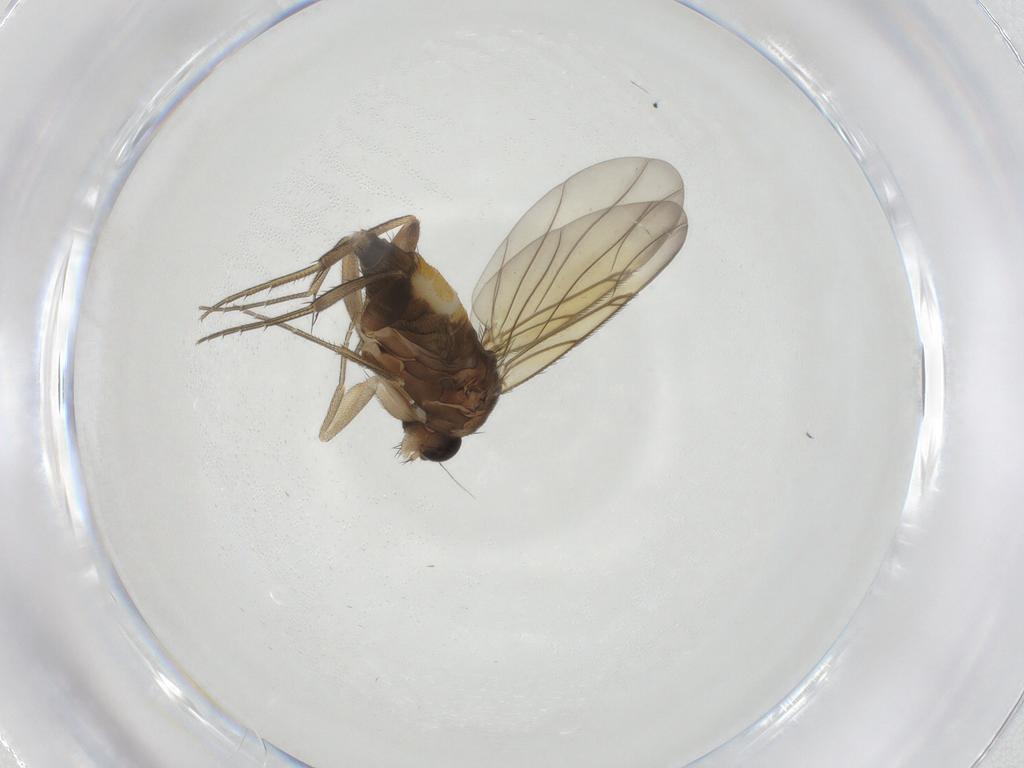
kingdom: Animalia
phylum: Arthropoda
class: Insecta
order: Diptera
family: Phoridae
